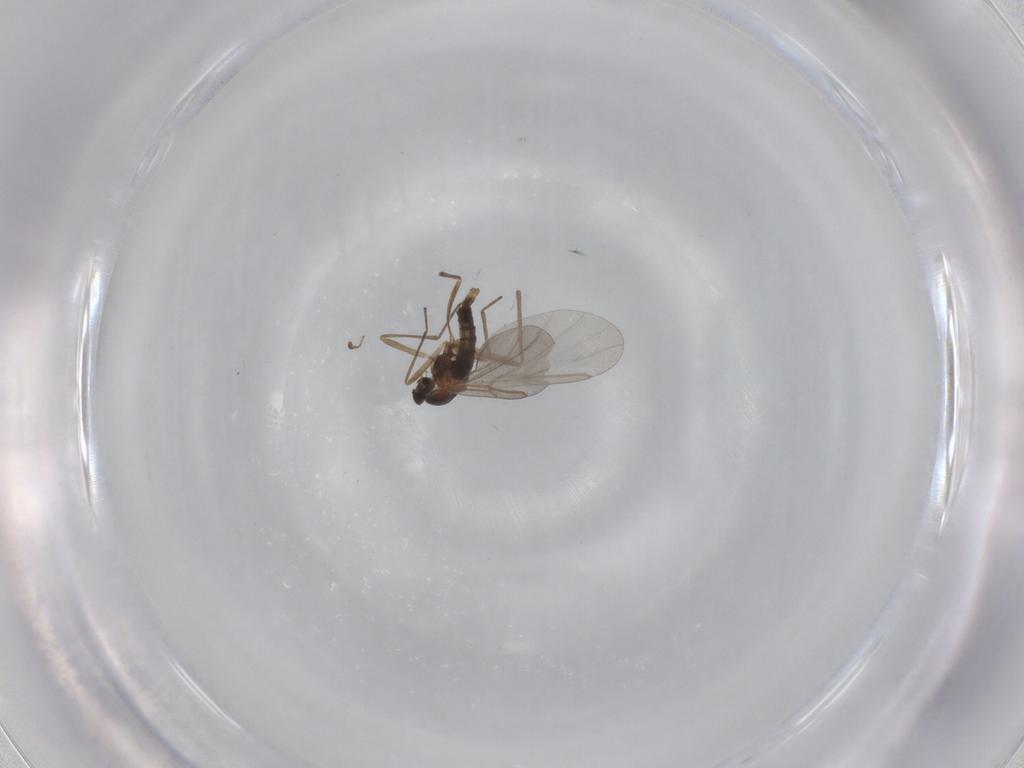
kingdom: Animalia
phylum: Arthropoda
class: Insecta
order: Diptera
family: Cecidomyiidae
